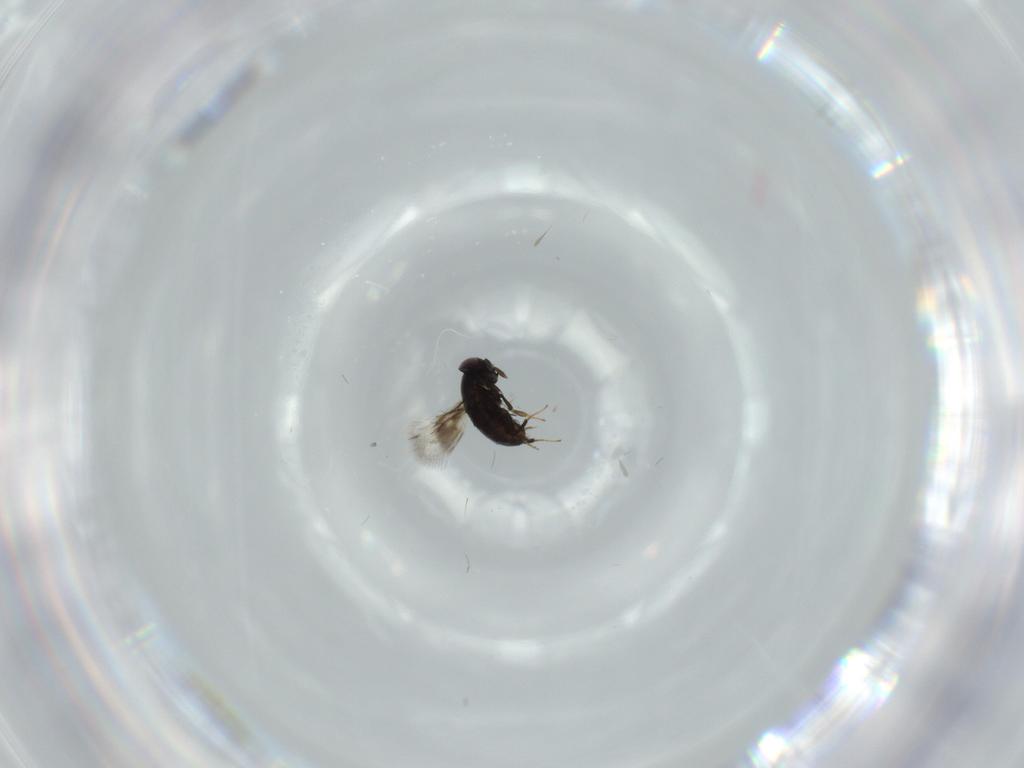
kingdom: Animalia
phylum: Arthropoda
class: Insecta
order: Hymenoptera
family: Signiphoridae
